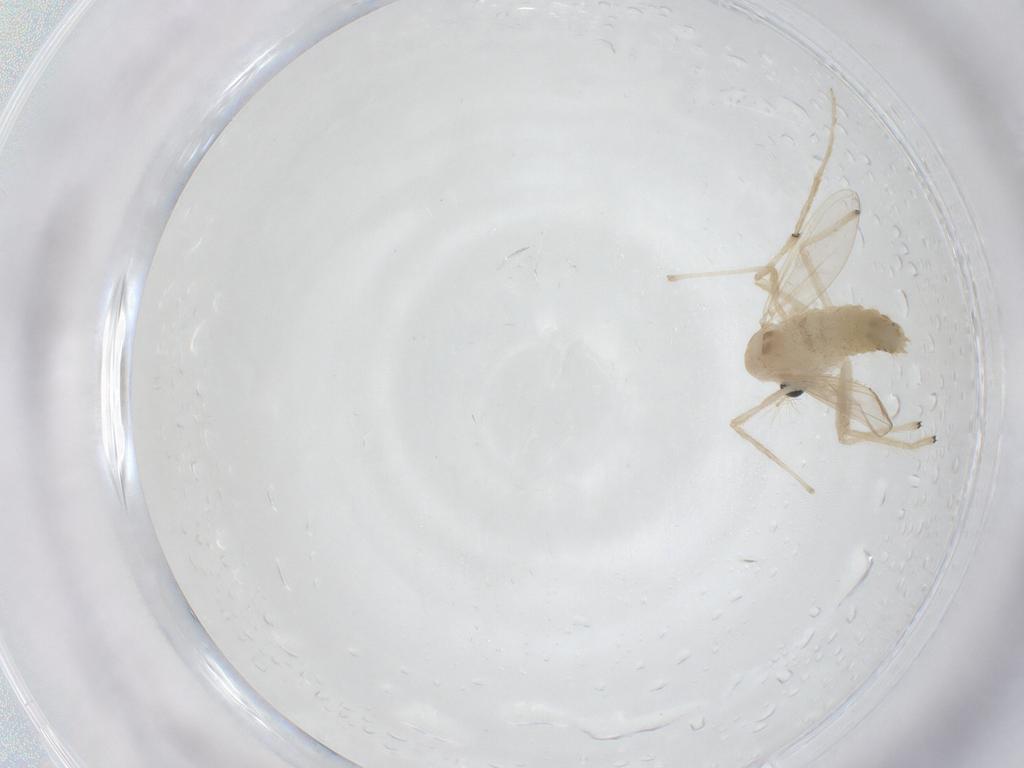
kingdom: Animalia
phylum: Arthropoda
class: Insecta
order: Diptera
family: Chironomidae
